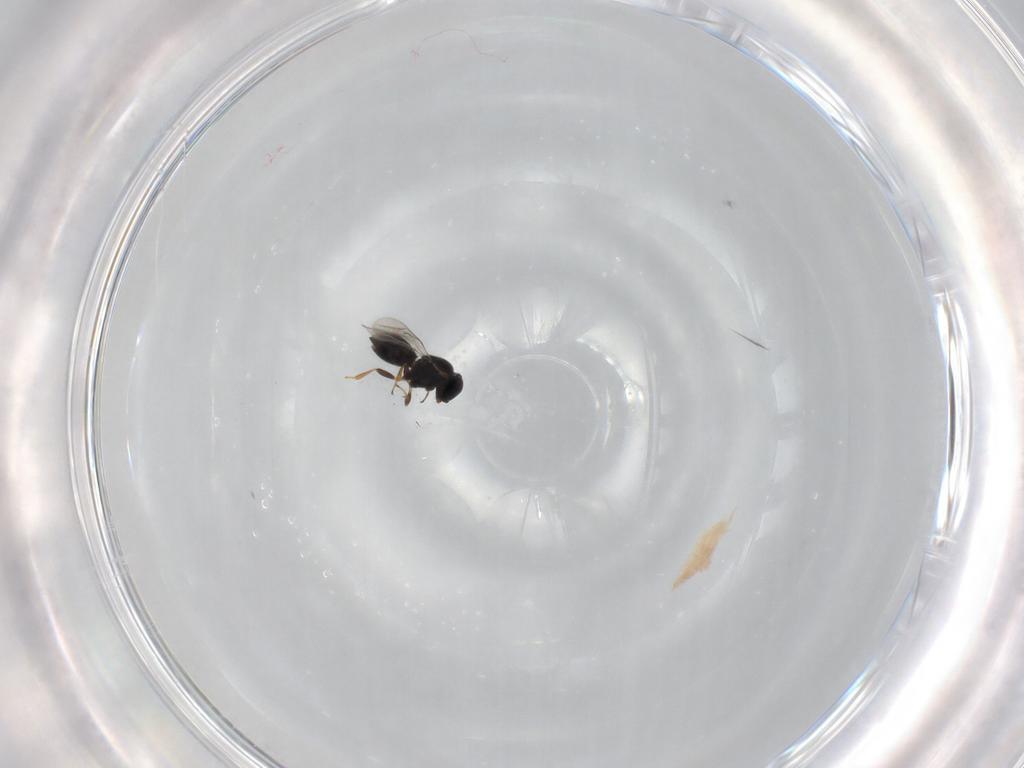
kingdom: Animalia
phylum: Arthropoda
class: Insecta
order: Hymenoptera
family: Scelionidae
